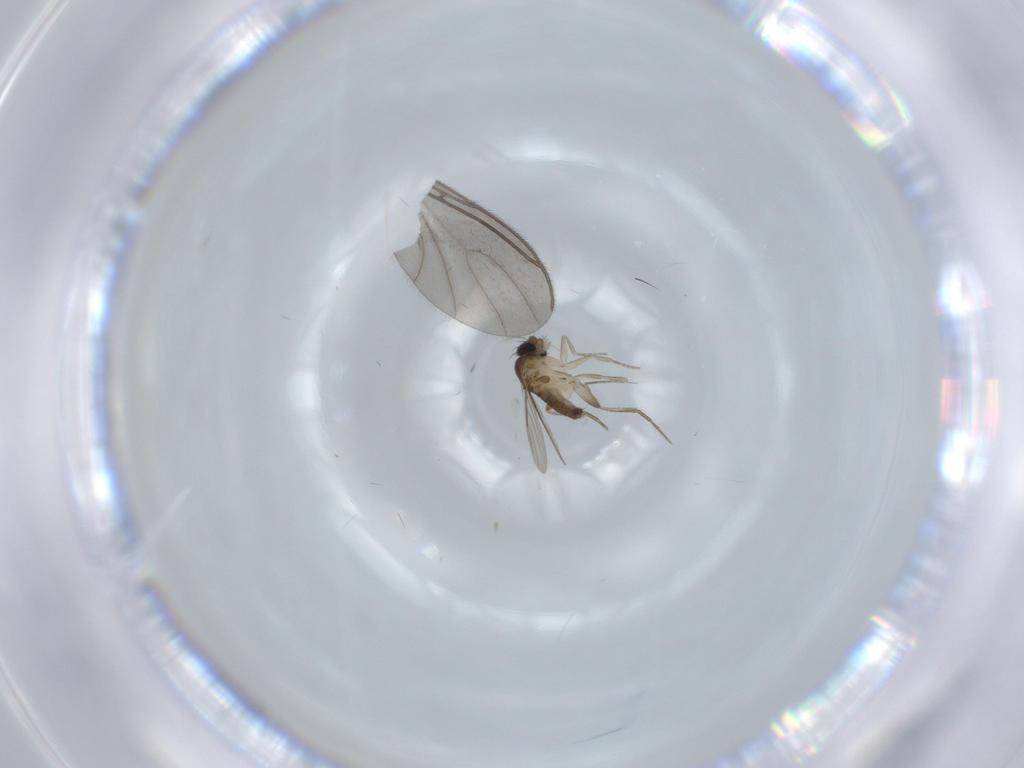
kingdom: Animalia
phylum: Arthropoda
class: Insecta
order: Diptera
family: Phoridae
